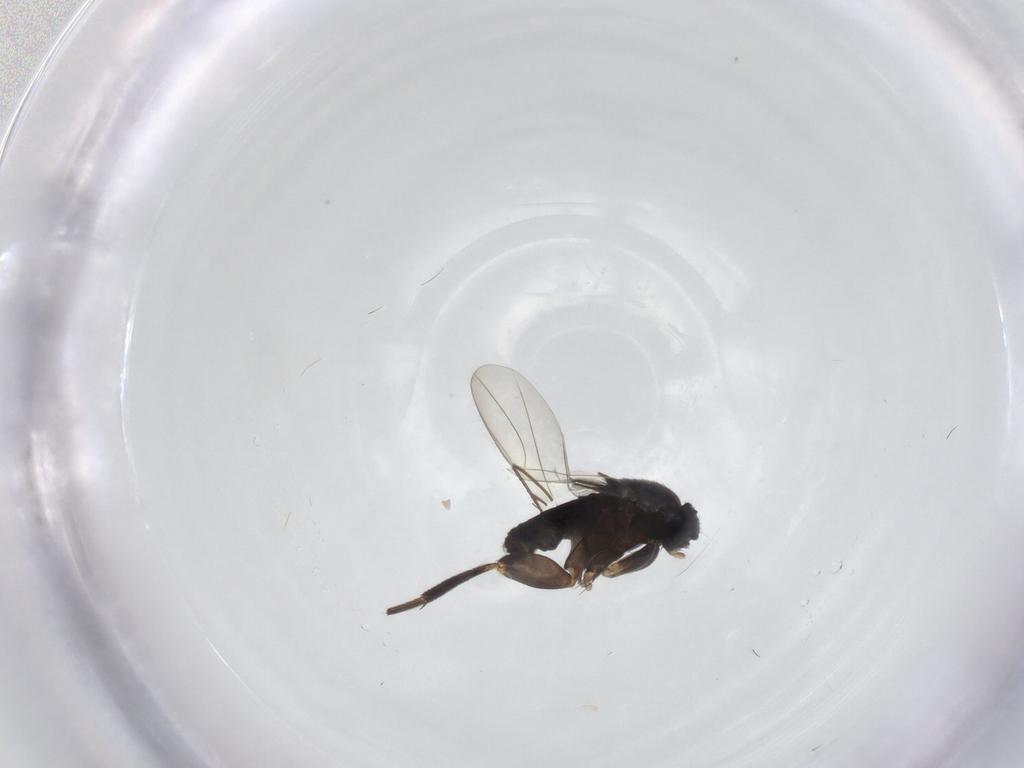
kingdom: Animalia
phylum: Arthropoda
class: Insecta
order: Diptera
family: Phoridae
